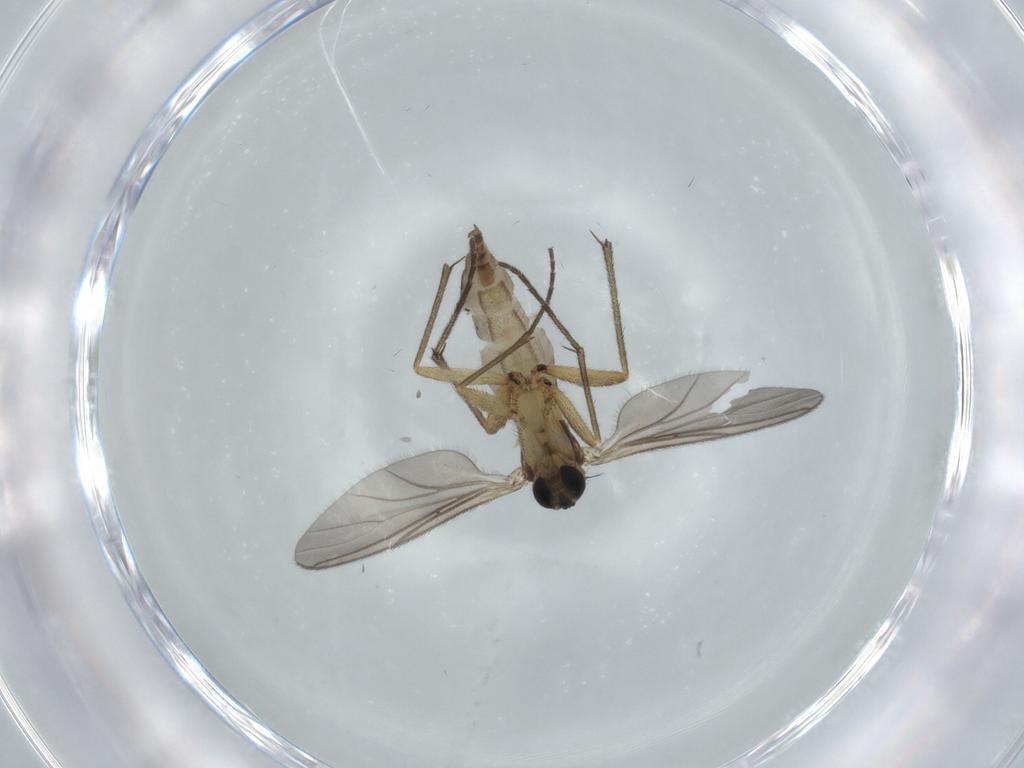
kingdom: Animalia
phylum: Arthropoda
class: Insecta
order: Diptera
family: Sciaridae
